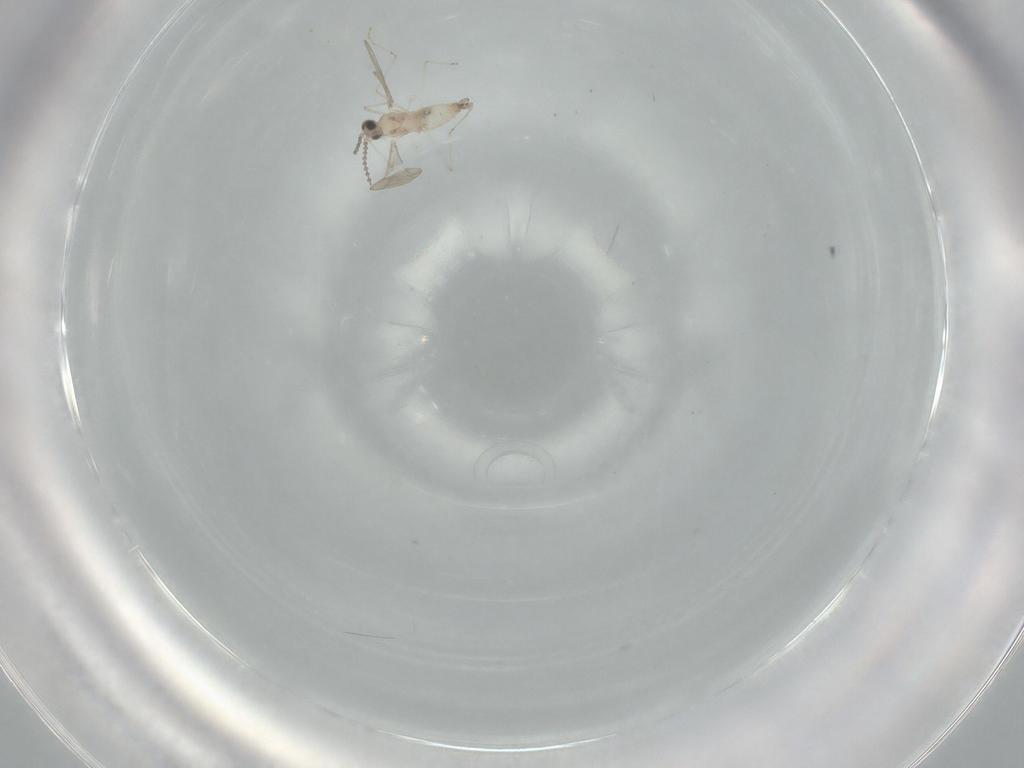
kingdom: Animalia
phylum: Arthropoda
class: Insecta
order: Diptera
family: Cecidomyiidae
